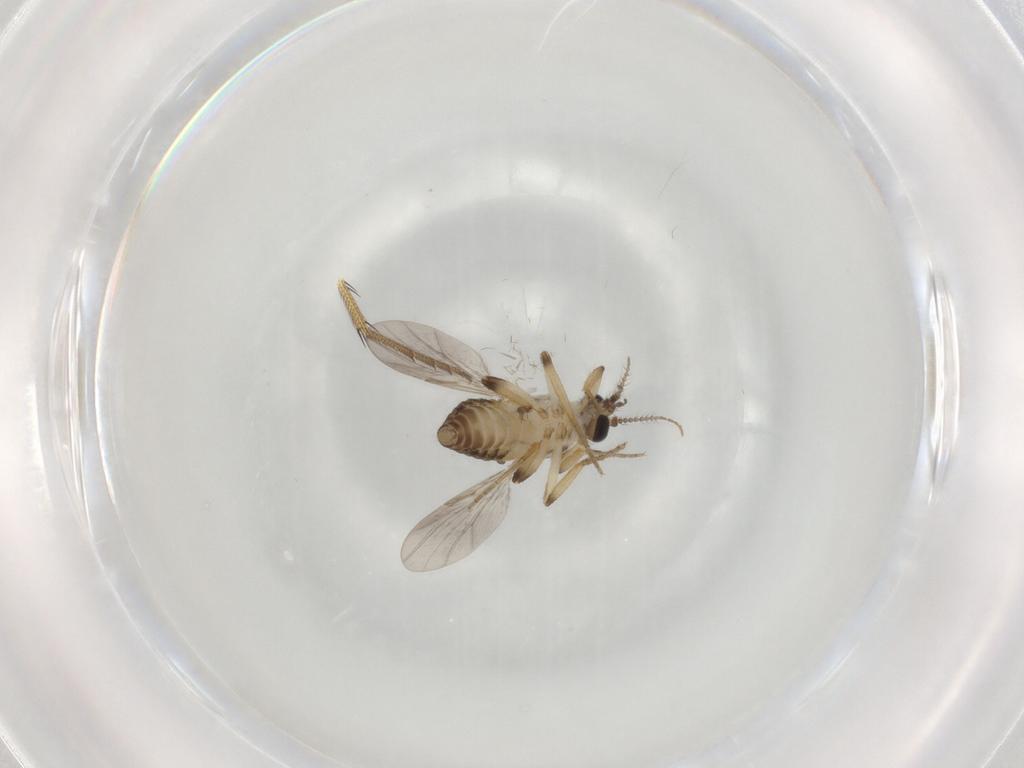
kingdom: Animalia
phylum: Arthropoda
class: Insecta
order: Diptera
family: Ceratopogonidae
